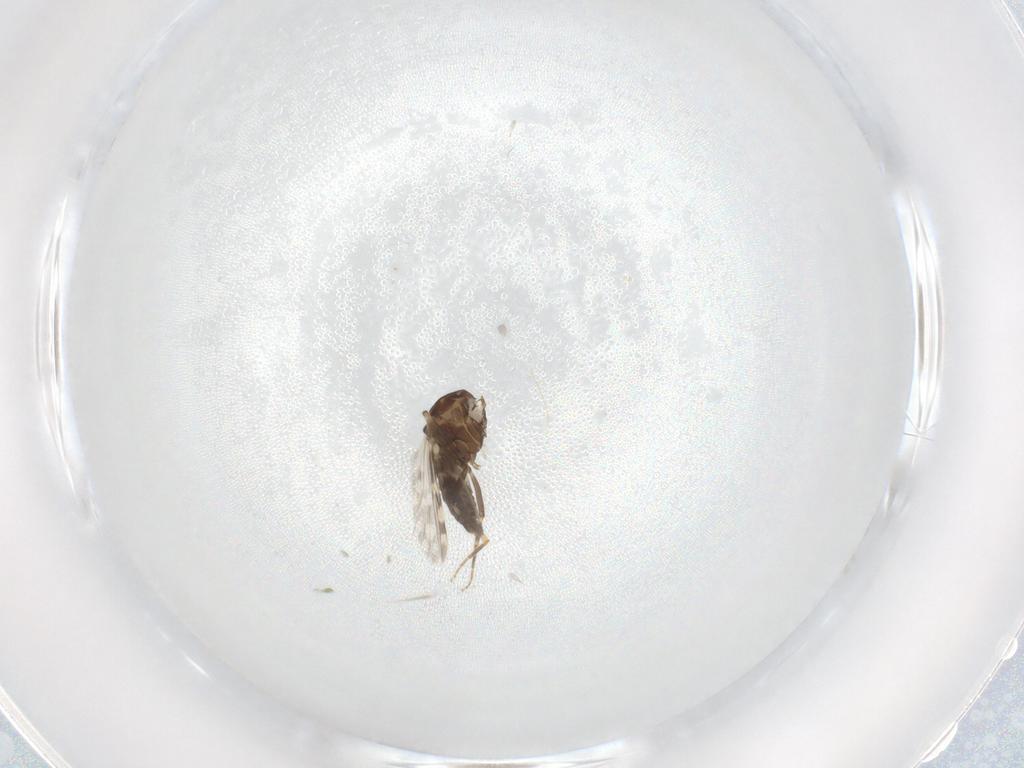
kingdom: Animalia
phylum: Arthropoda
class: Insecta
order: Diptera
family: Ceratopogonidae
